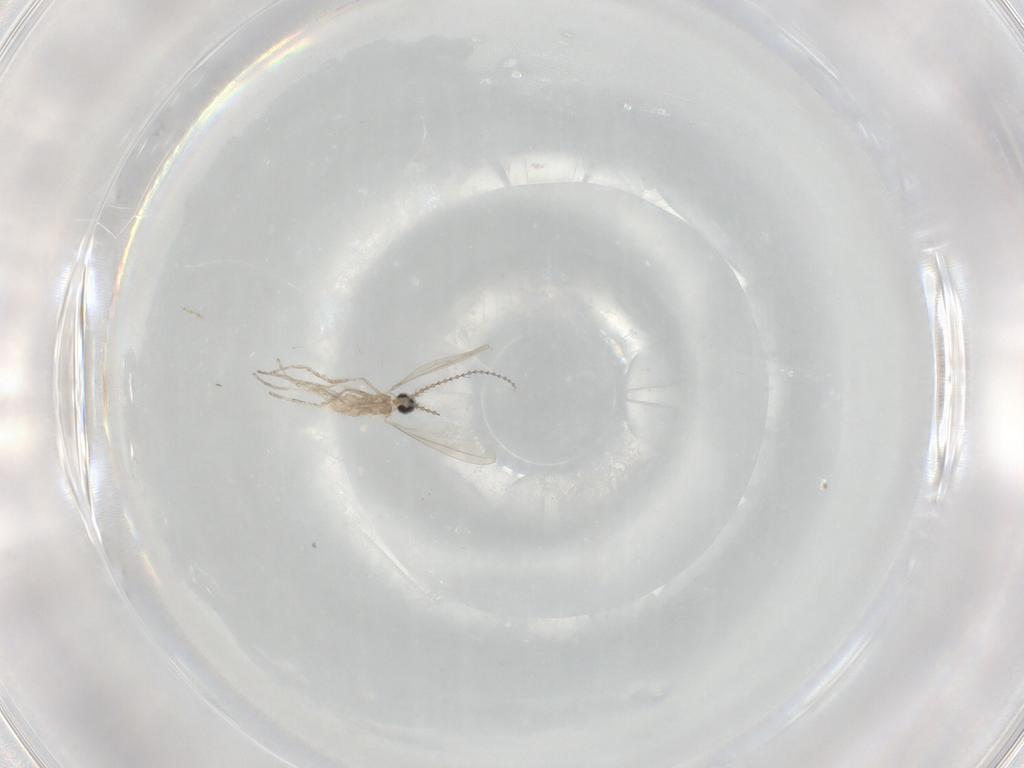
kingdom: Animalia
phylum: Arthropoda
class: Insecta
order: Diptera
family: Cecidomyiidae
